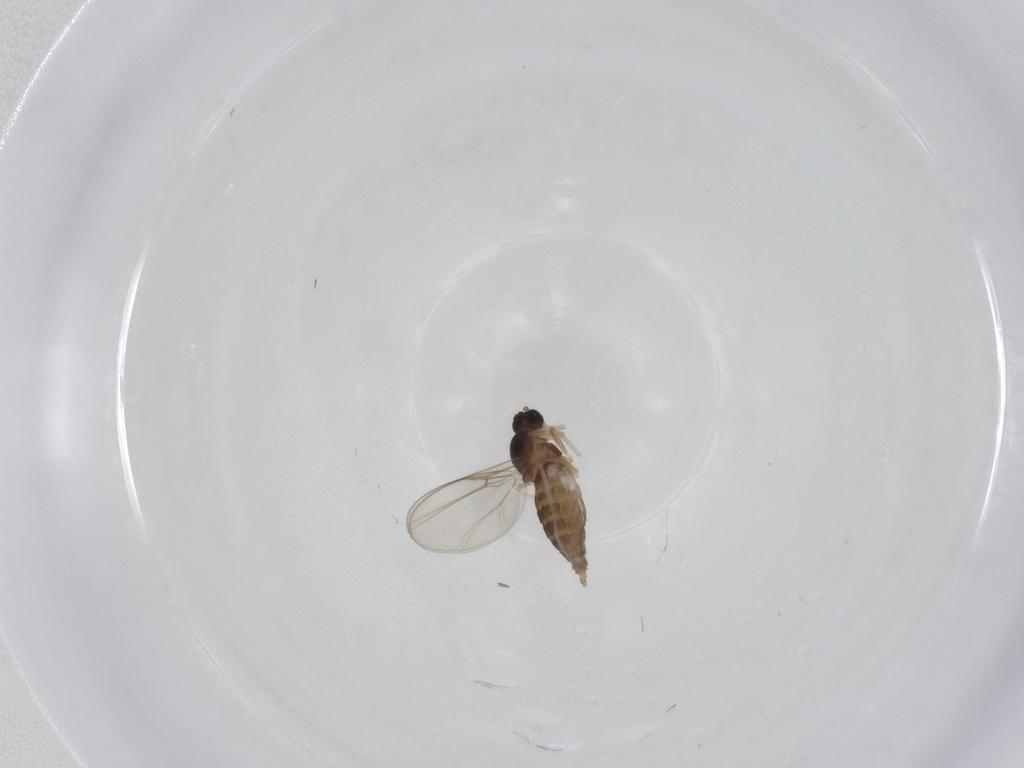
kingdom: Animalia
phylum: Arthropoda
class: Insecta
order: Diptera
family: Cecidomyiidae
